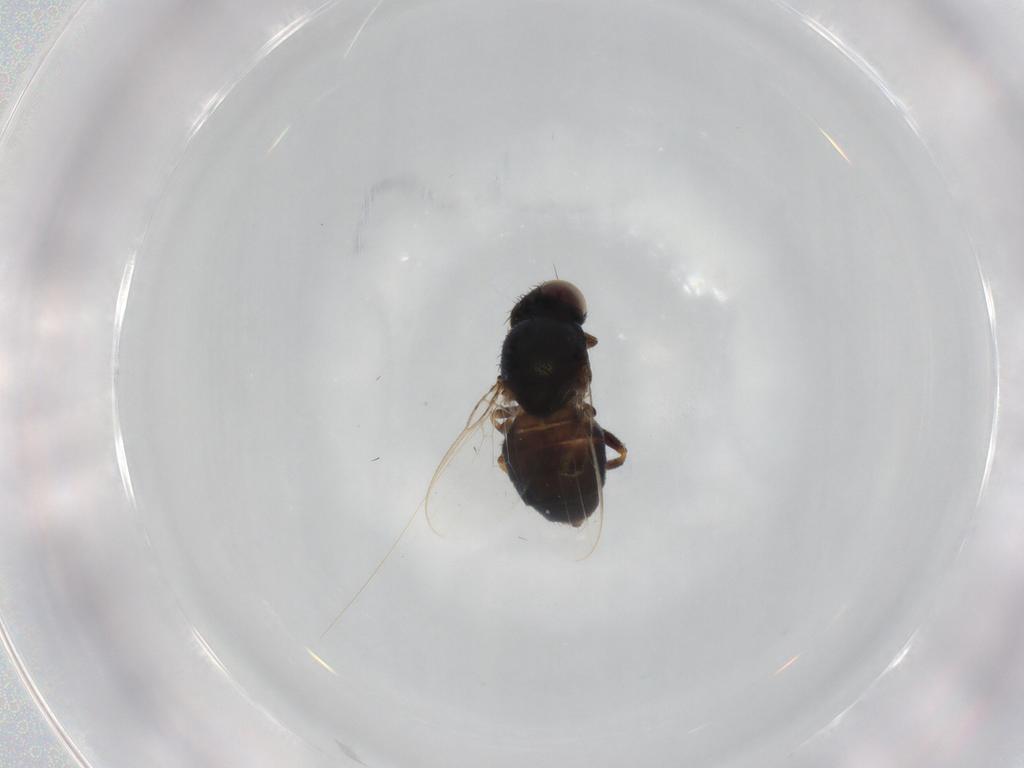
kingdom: Animalia
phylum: Arthropoda
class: Insecta
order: Diptera
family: Chloropidae
